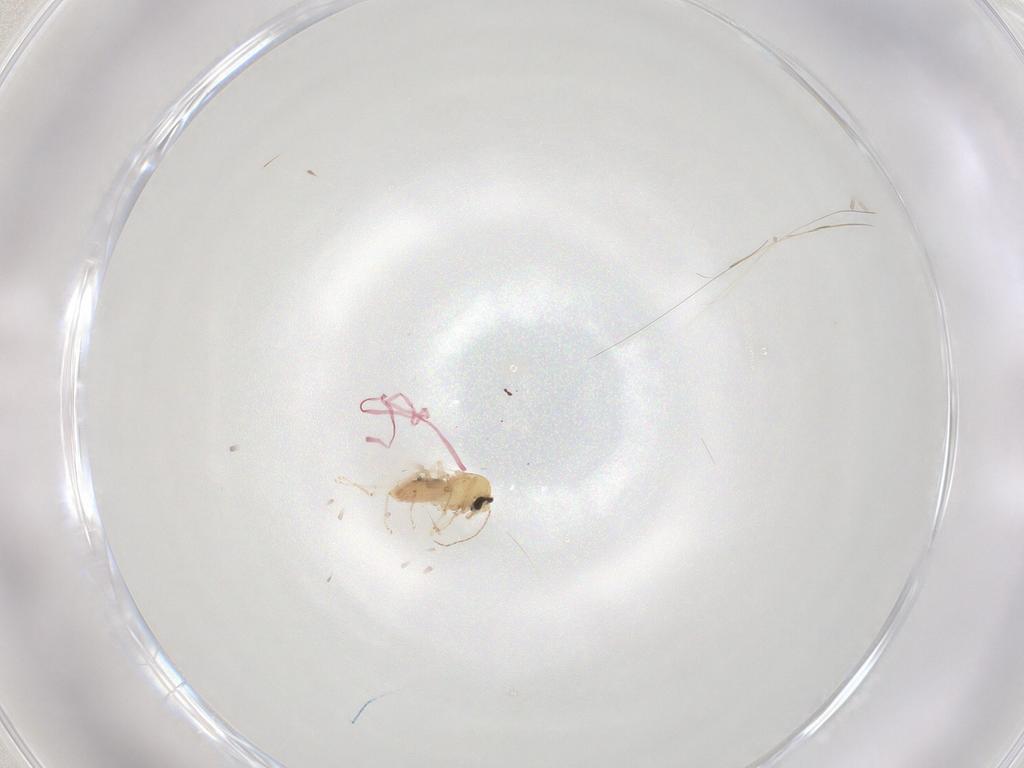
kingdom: Animalia
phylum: Arthropoda
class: Insecta
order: Diptera
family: Ceratopogonidae
